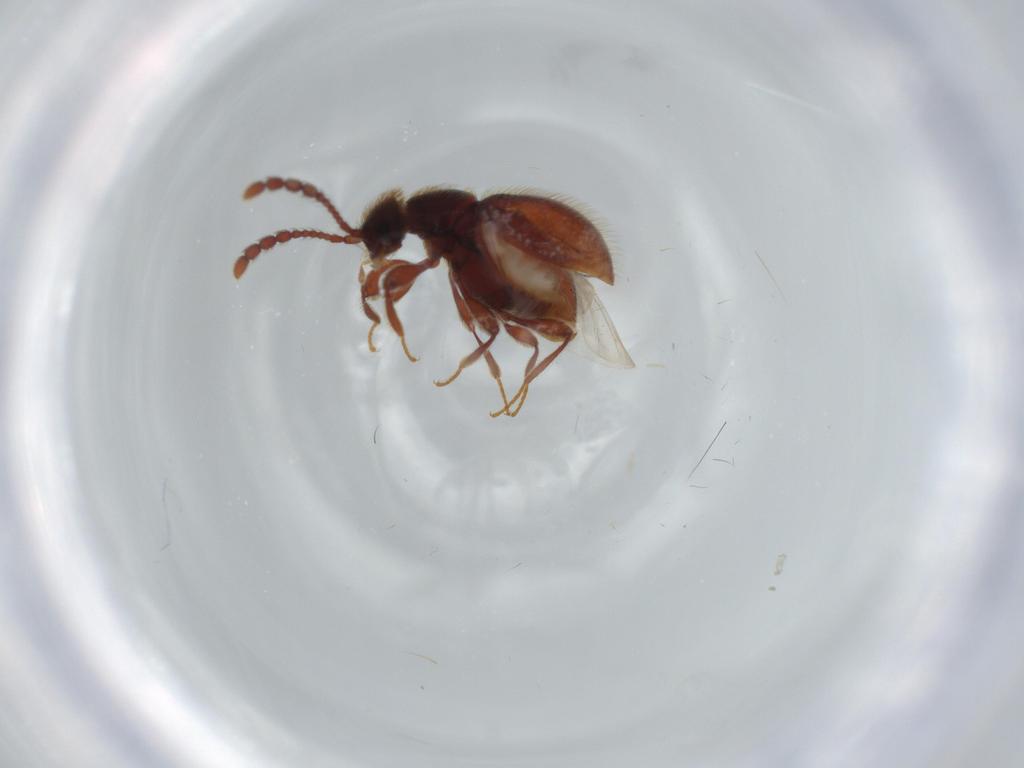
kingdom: Animalia
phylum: Arthropoda
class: Insecta
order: Coleoptera
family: Staphylinidae
